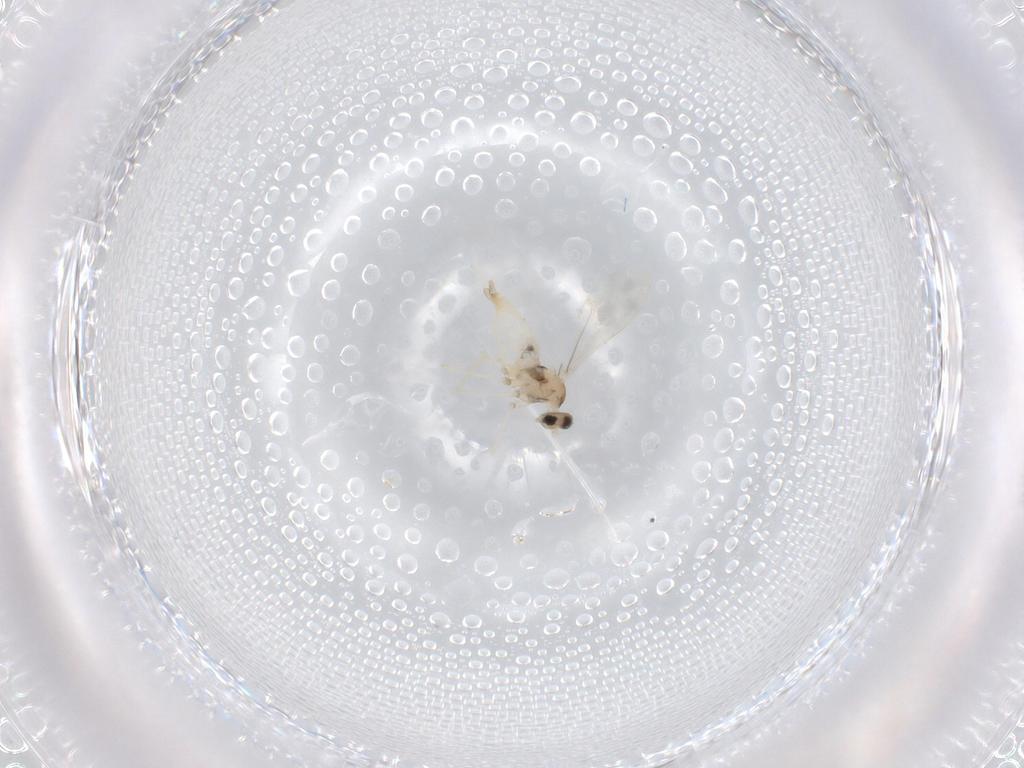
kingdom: Animalia
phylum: Arthropoda
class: Insecta
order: Diptera
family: Cecidomyiidae
